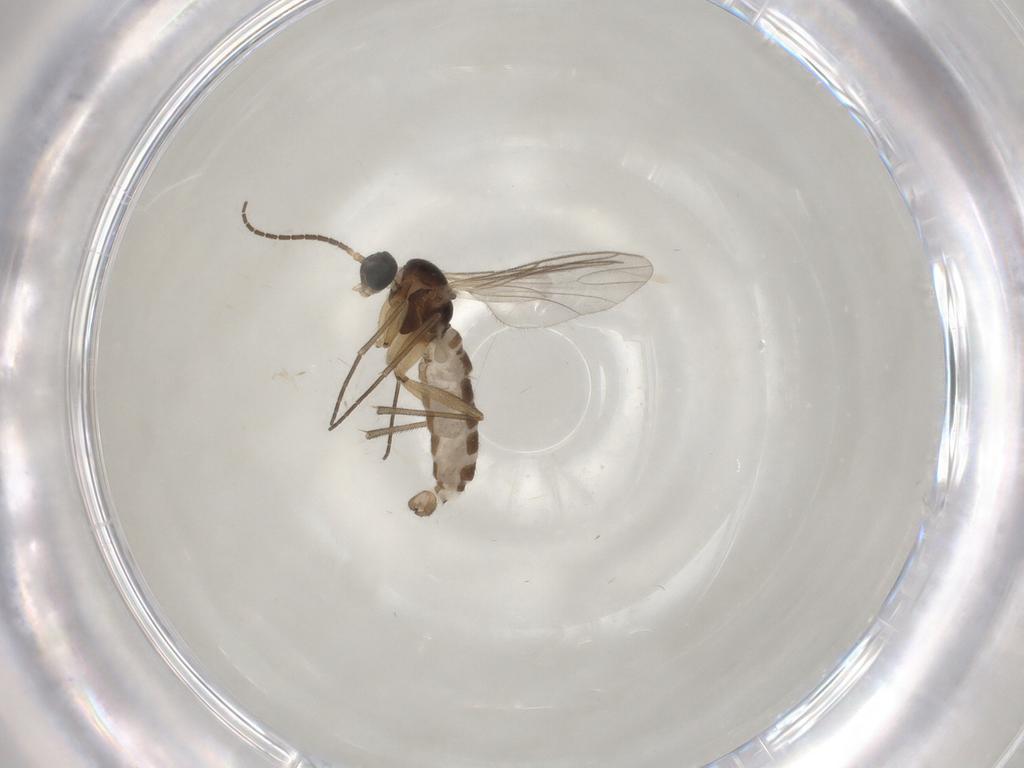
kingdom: Animalia
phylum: Arthropoda
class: Insecta
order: Diptera
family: Sciaridae
